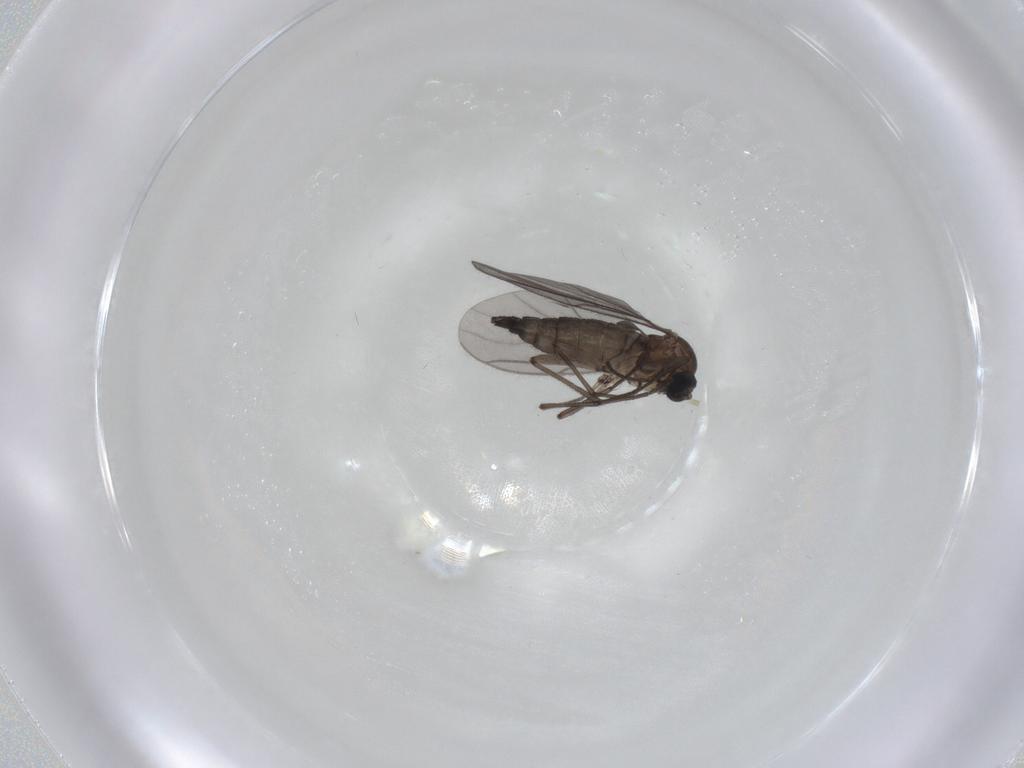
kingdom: Animalia
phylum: Arthropoda
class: Insecta
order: Diptera
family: Sciaridae
